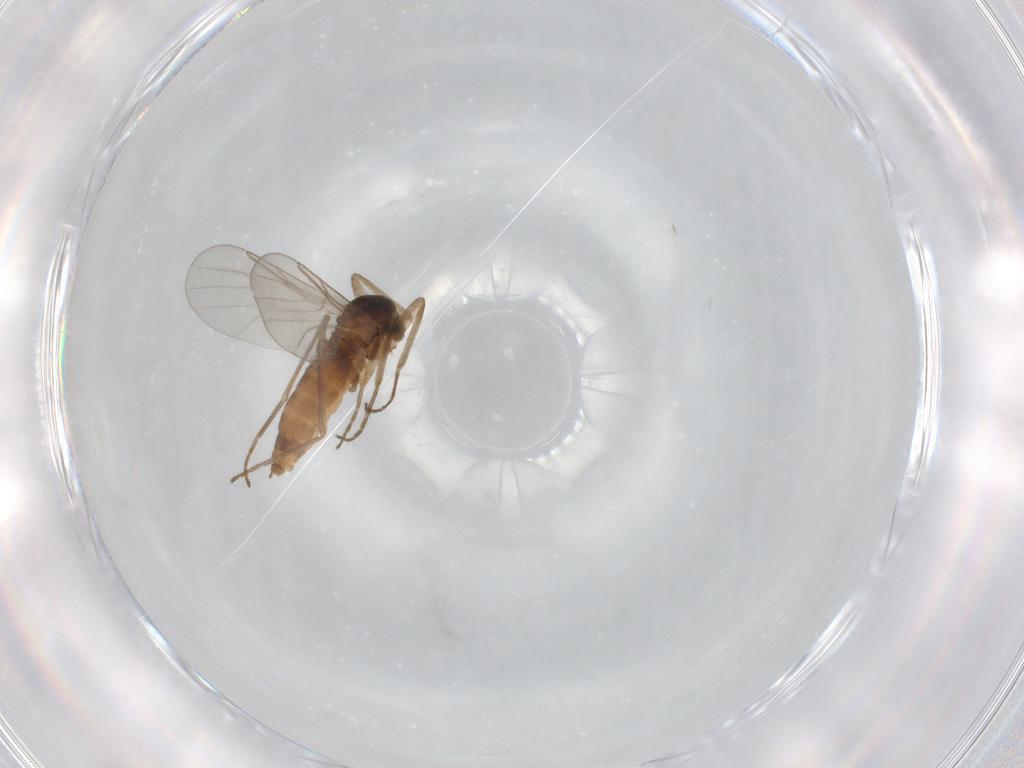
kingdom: Animalia
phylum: Arthropoda
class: Insecta
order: Diptera
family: Cecidomyiidae
